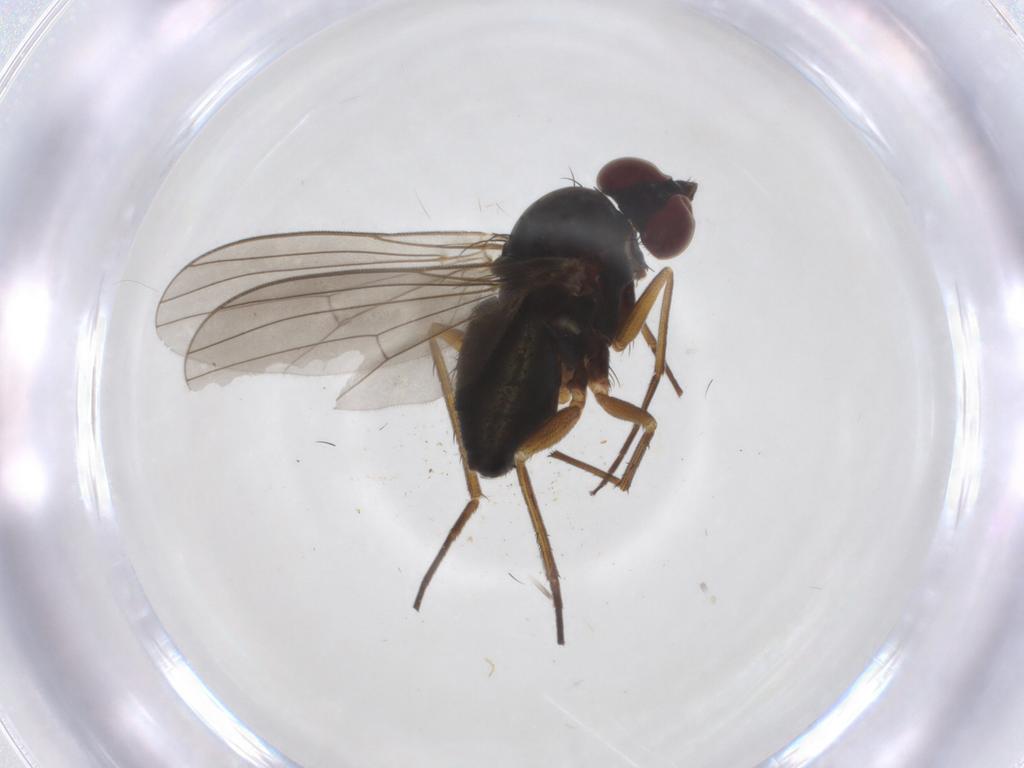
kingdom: Animalia
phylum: Arthropoda
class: Insecta
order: Diptera
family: Dolichopodidae
